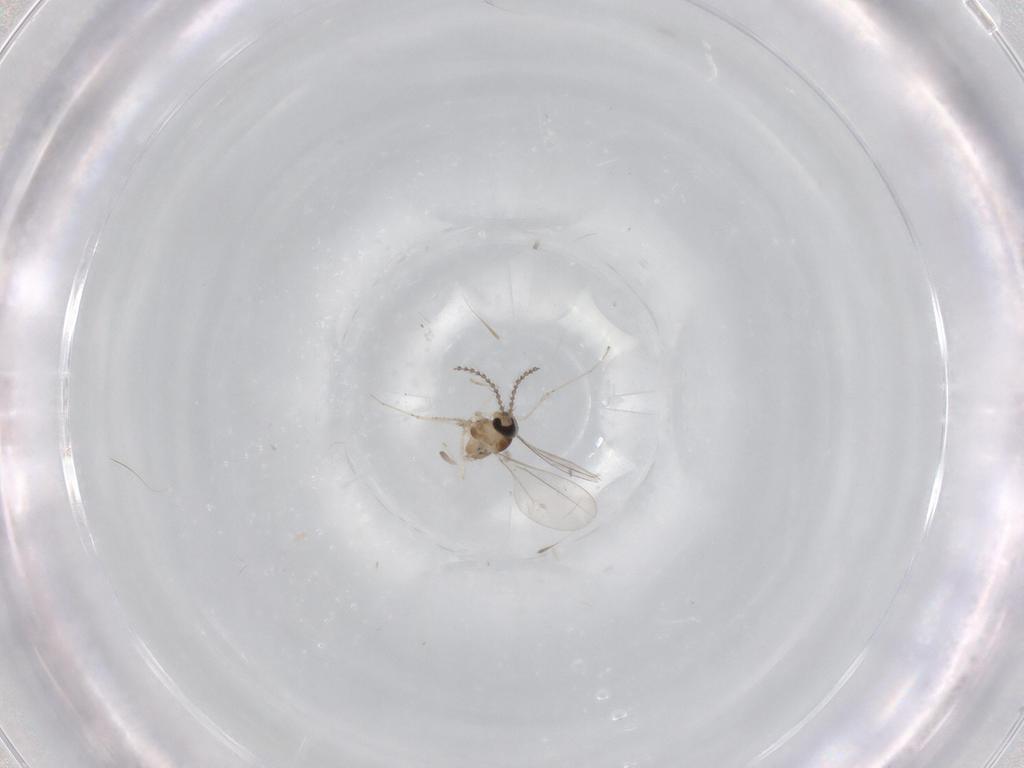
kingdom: Animalia
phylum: Arthropoda
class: Insecta
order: Diptera
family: Cecidomyiidae
